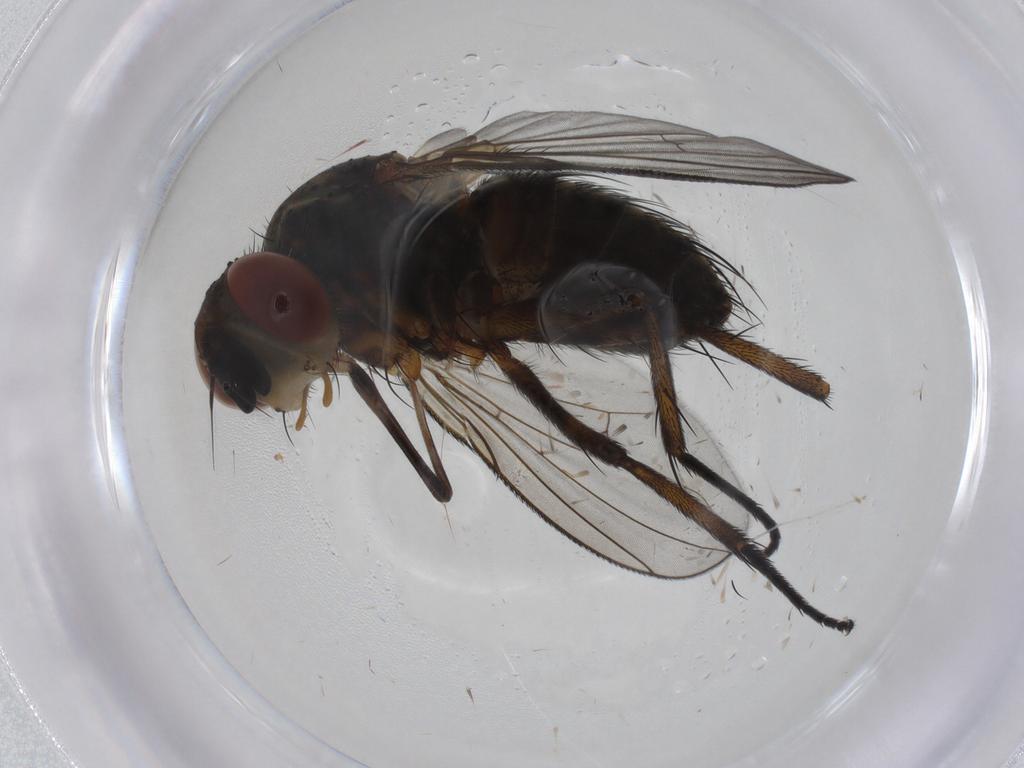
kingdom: Animalia
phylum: Arthropoda
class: Insecta
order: Diptera
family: Tachinidae
